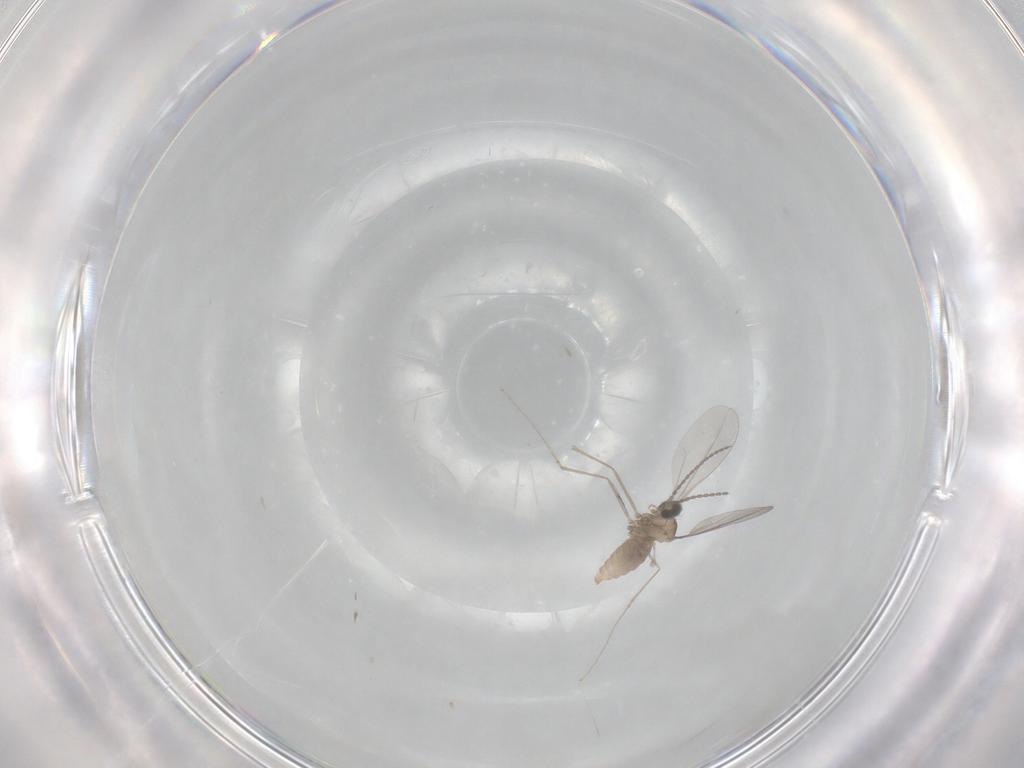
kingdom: Animalia
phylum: Arthropoda
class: Insecta
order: Diptera
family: Cecidomyiidae
